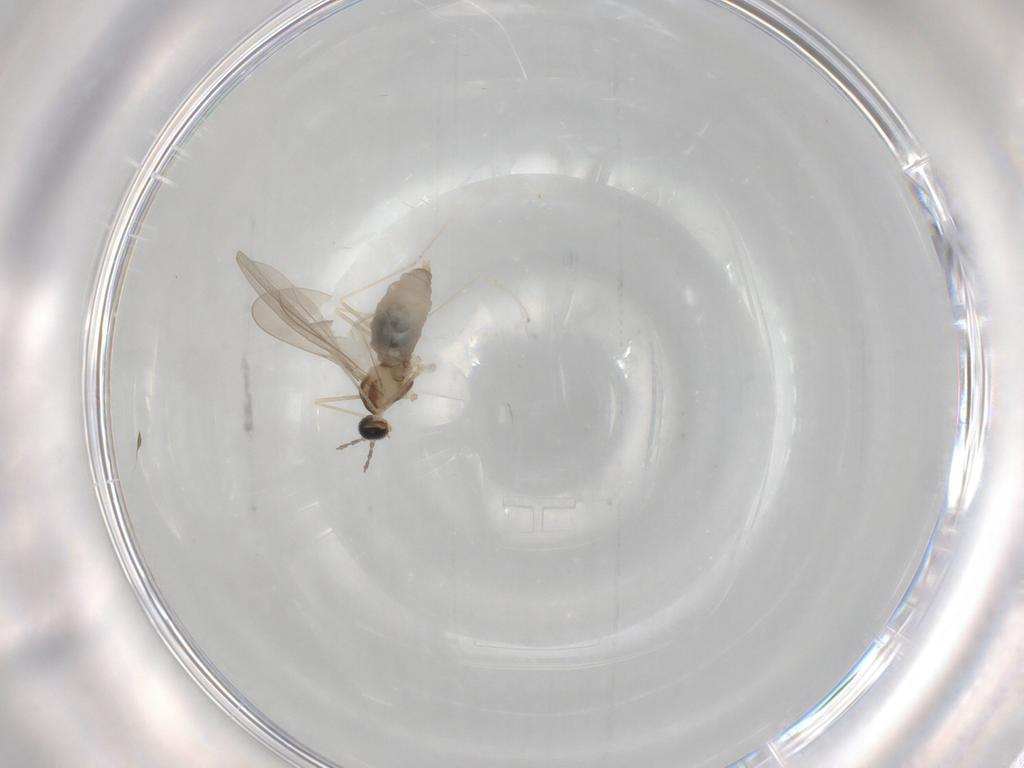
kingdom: Animalia
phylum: Arthropoda
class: Insecta
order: Diptera
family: Cecidomyiidae
